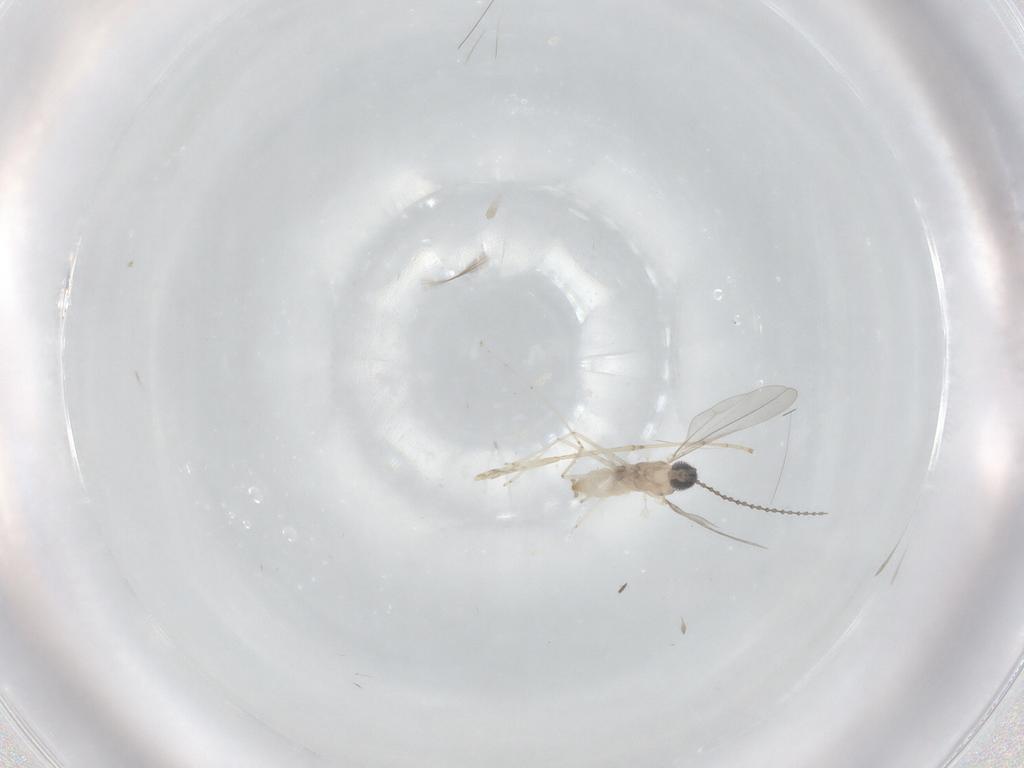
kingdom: Animalia
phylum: Arthropoda
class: Insecta
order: Diptera
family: Cecidomyiidae
